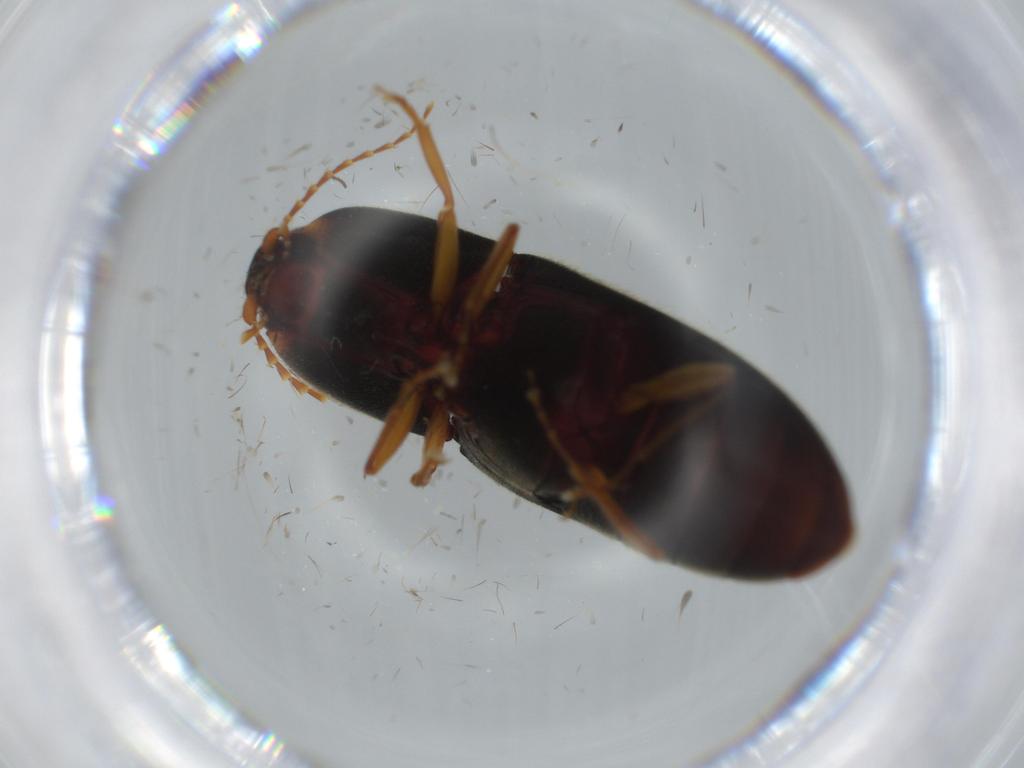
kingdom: Animalia
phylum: Arthropoda
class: Insecta
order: Coleoptera
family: Elateridae
